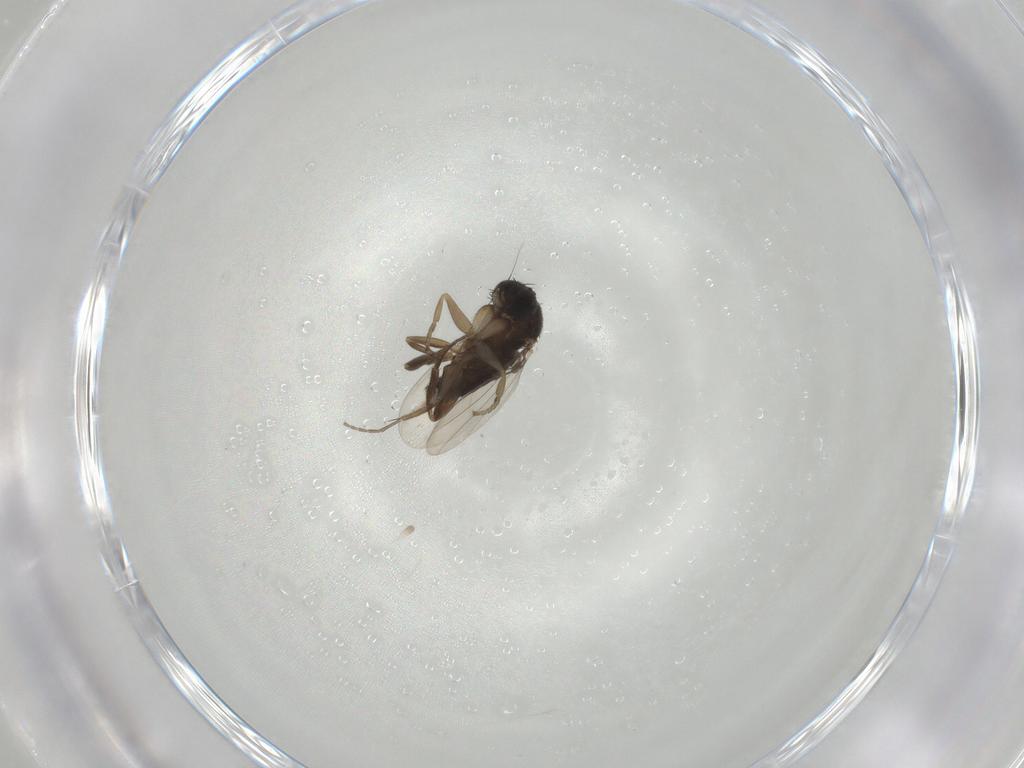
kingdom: Animalia
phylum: Arthropoda
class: Insecta
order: Diptera
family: Phoridae
